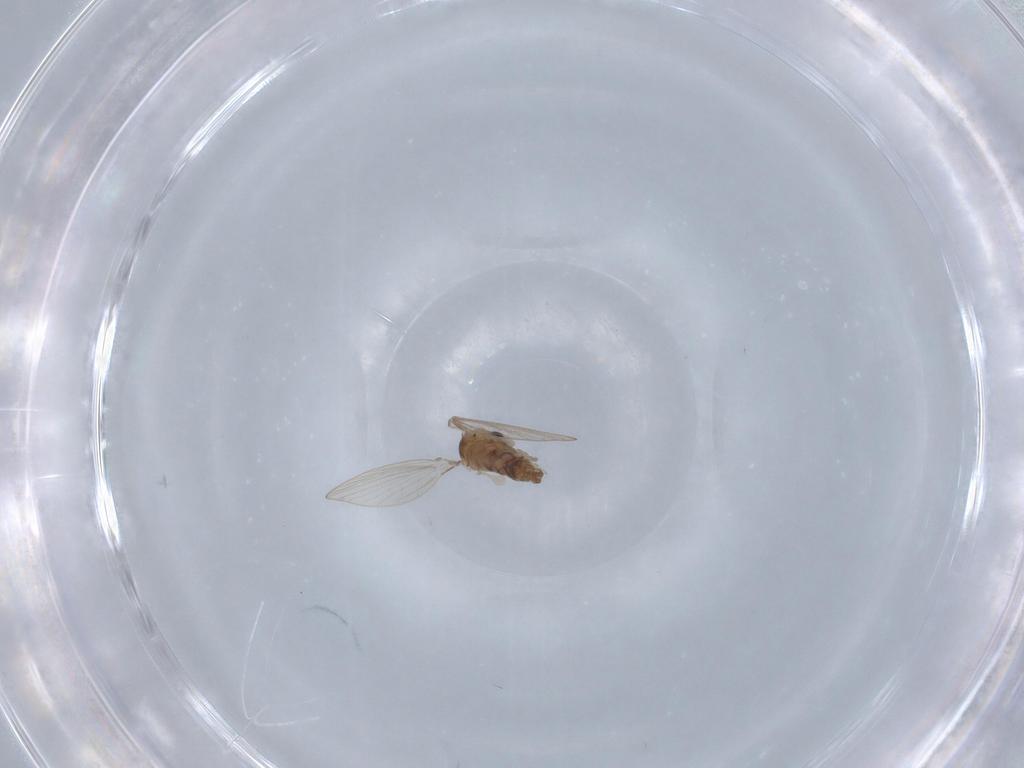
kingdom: Animalia
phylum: Arthropoda
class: Insecta
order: Diptera
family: Psychodidae
